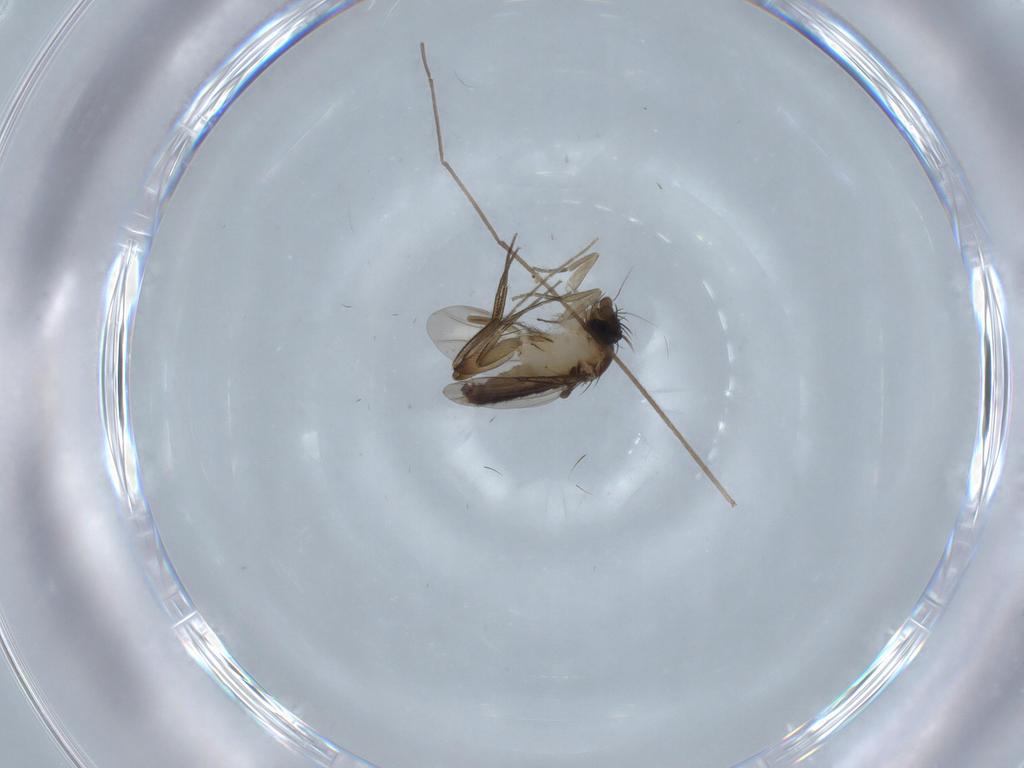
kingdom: Animalia
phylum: Arthropoda
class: Insecta
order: Diptera
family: Phoridae
